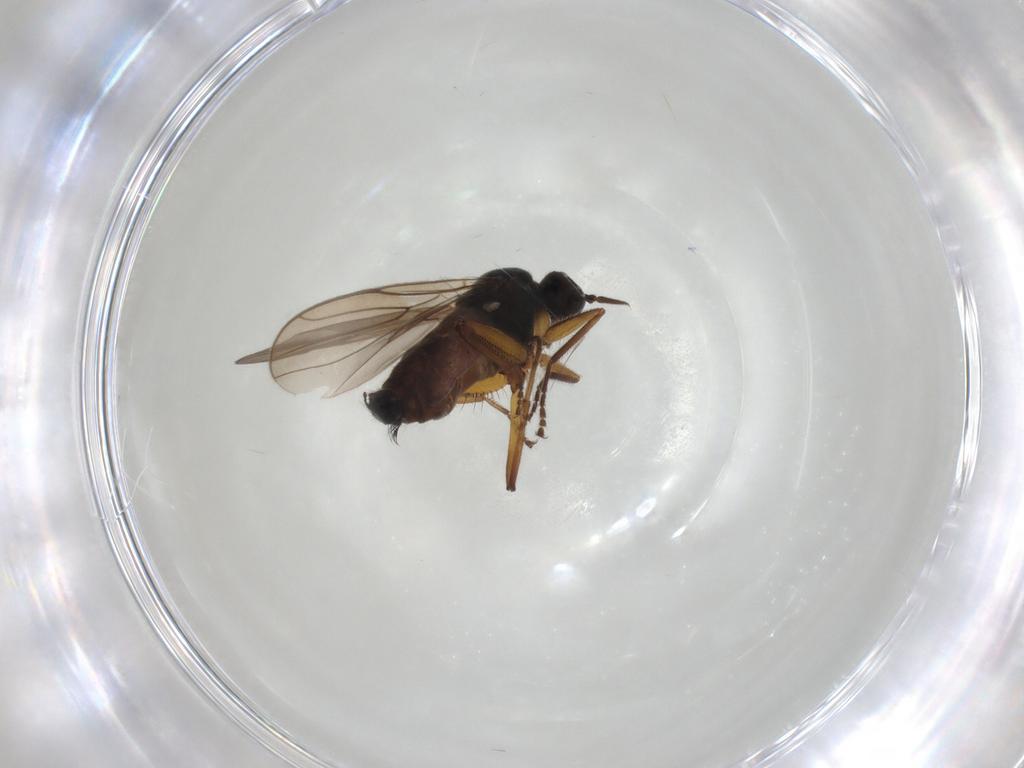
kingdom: Animalia
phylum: Arthropoda
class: Insecta
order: Diptera
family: Hybotidae
